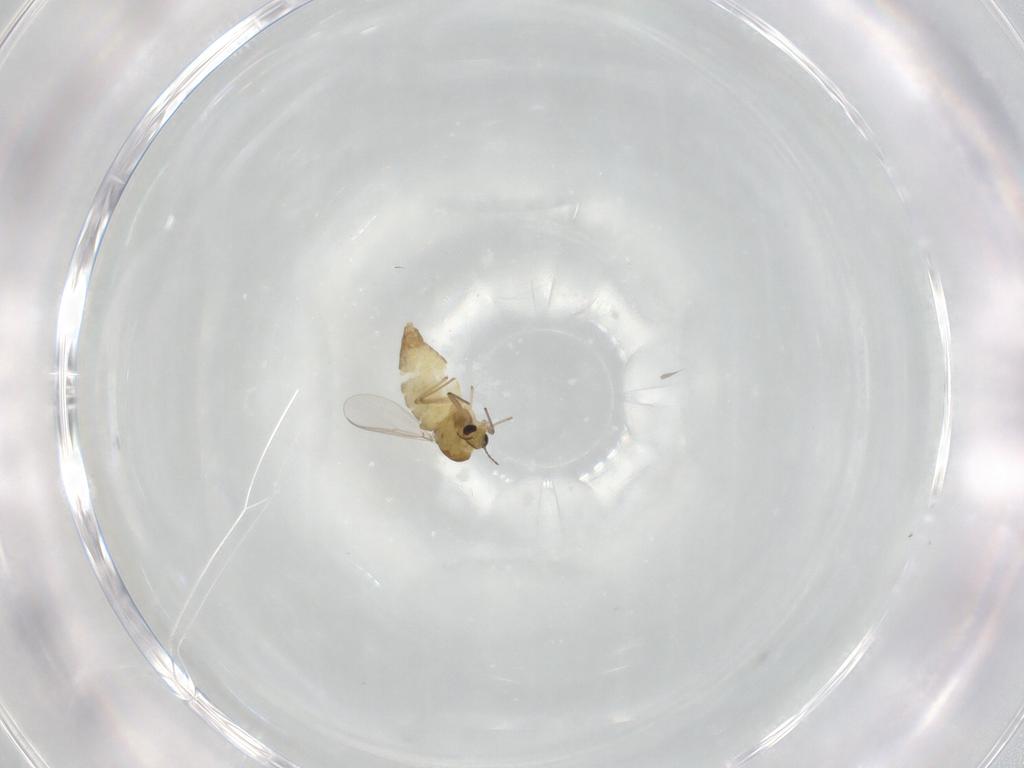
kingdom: Animalia
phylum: Arthropoda
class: Insecta
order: Diptera
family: Chironomidae
